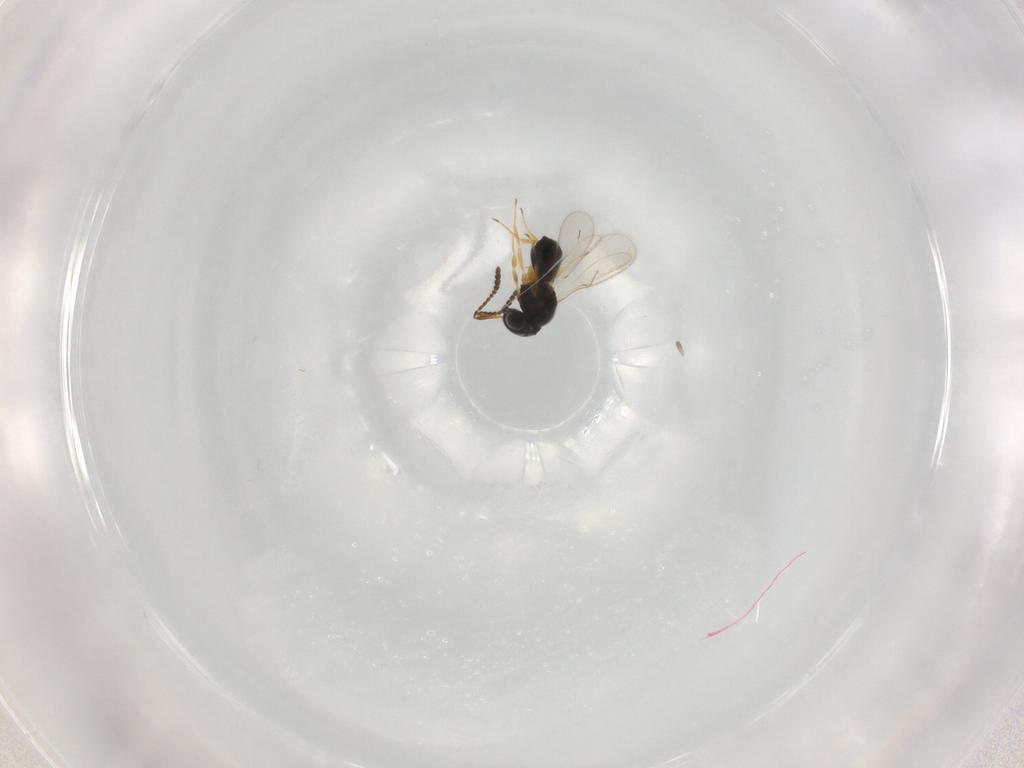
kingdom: Animalia
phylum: Arthropoda
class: Insecta
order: Hymenoptera
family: Scelionidae
